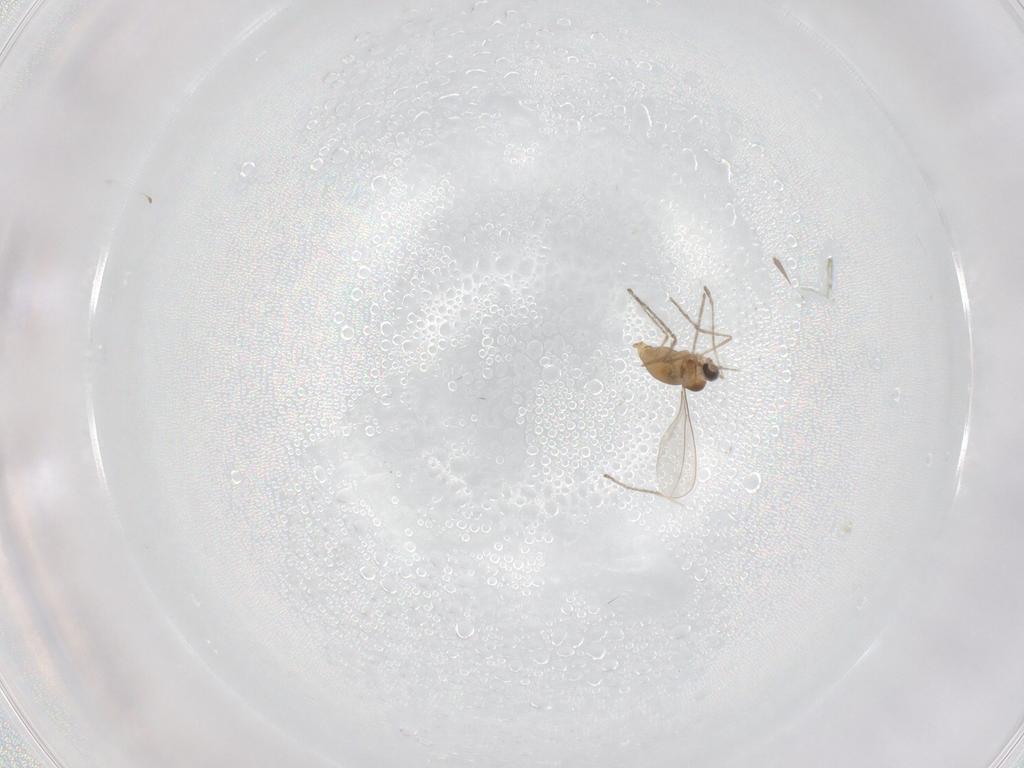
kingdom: Animalia
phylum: Arthropoda
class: Insecta
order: Diptera
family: Cecidomyiidae
